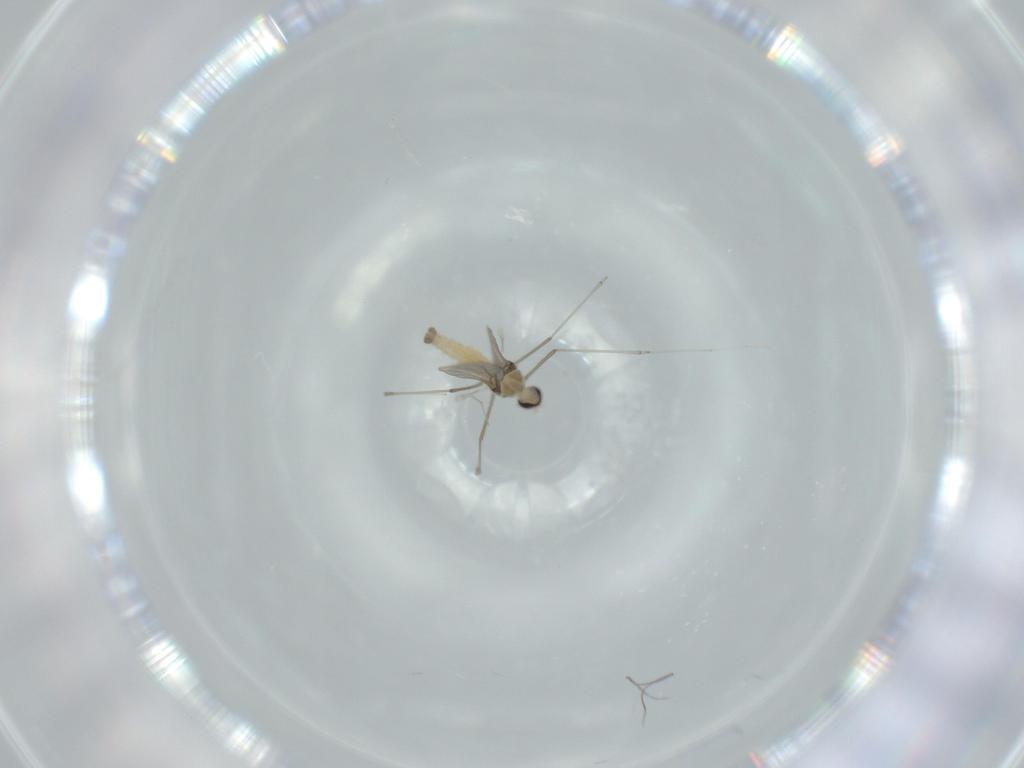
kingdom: Animalia
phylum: Arthropoda
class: Insecta
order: Diptera
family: Cecidomyiidae
